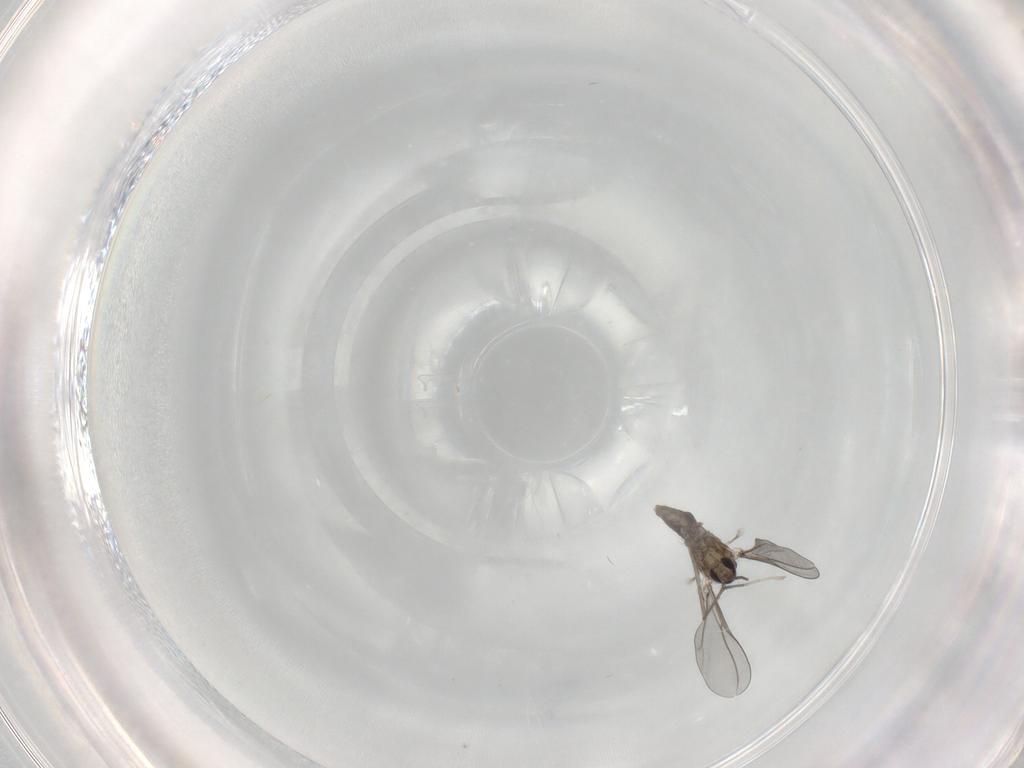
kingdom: Animalia
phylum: Arthropoda
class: Insecta
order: Diptera
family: Cecidomyiidae
